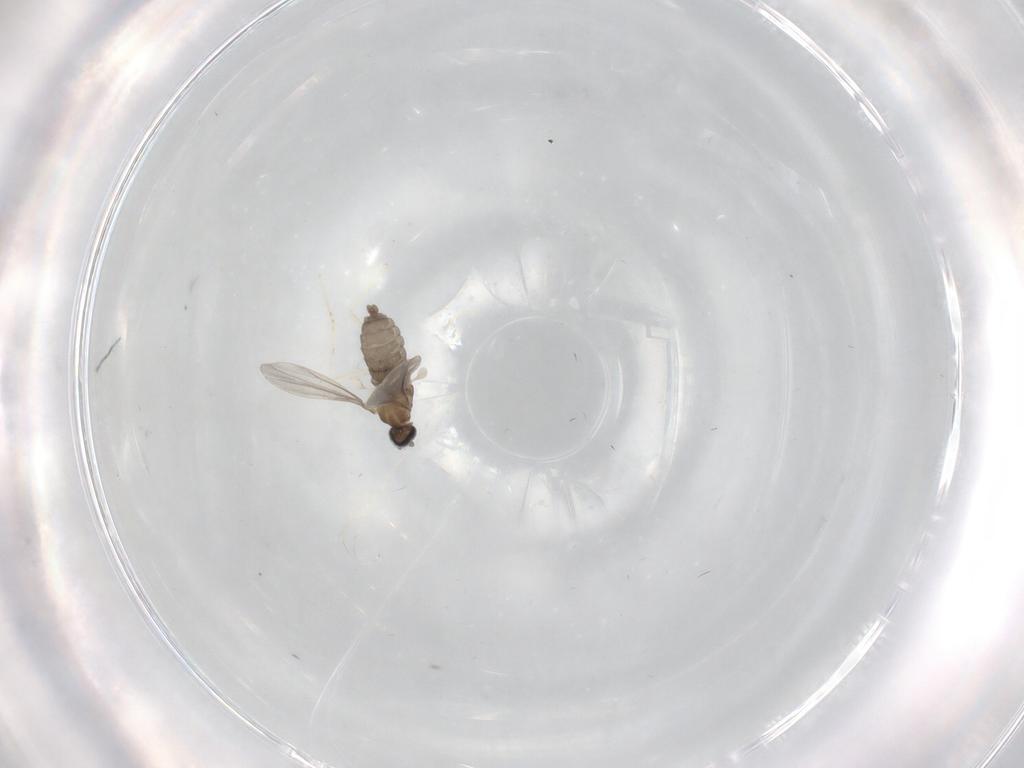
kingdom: Animalia
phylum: Arthropoda
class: Insecta
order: Diptera
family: Cecidomyiidae
